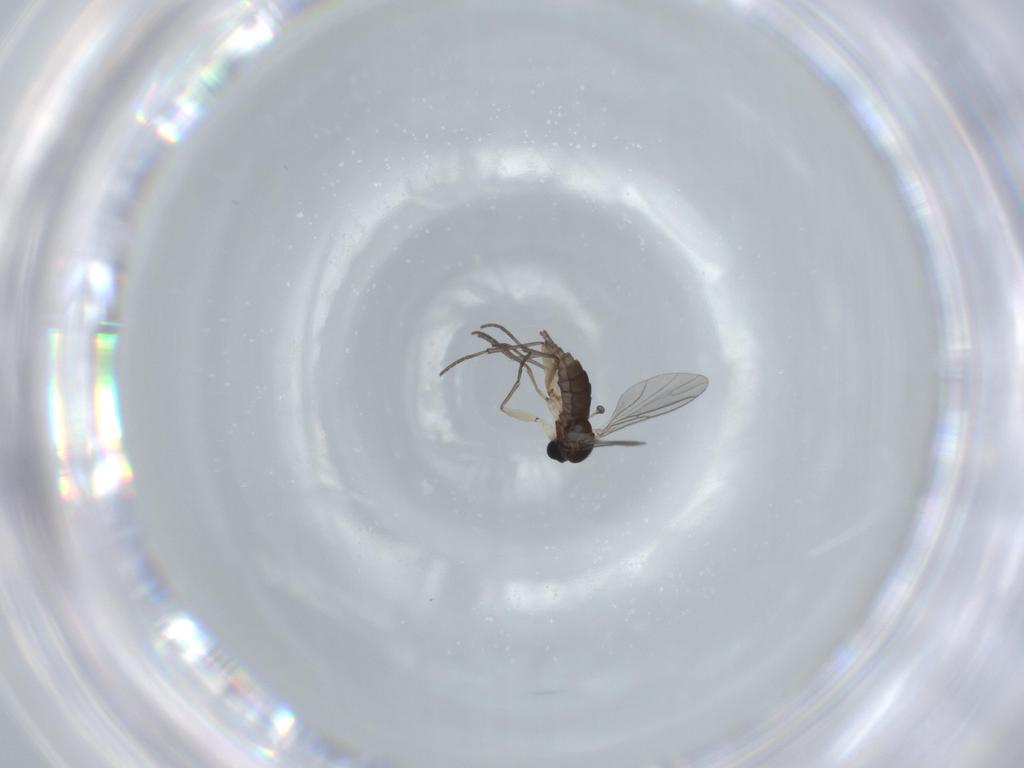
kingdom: Animalia
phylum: Arthropoda
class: Insecta
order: Diptera
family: Sciaridae
